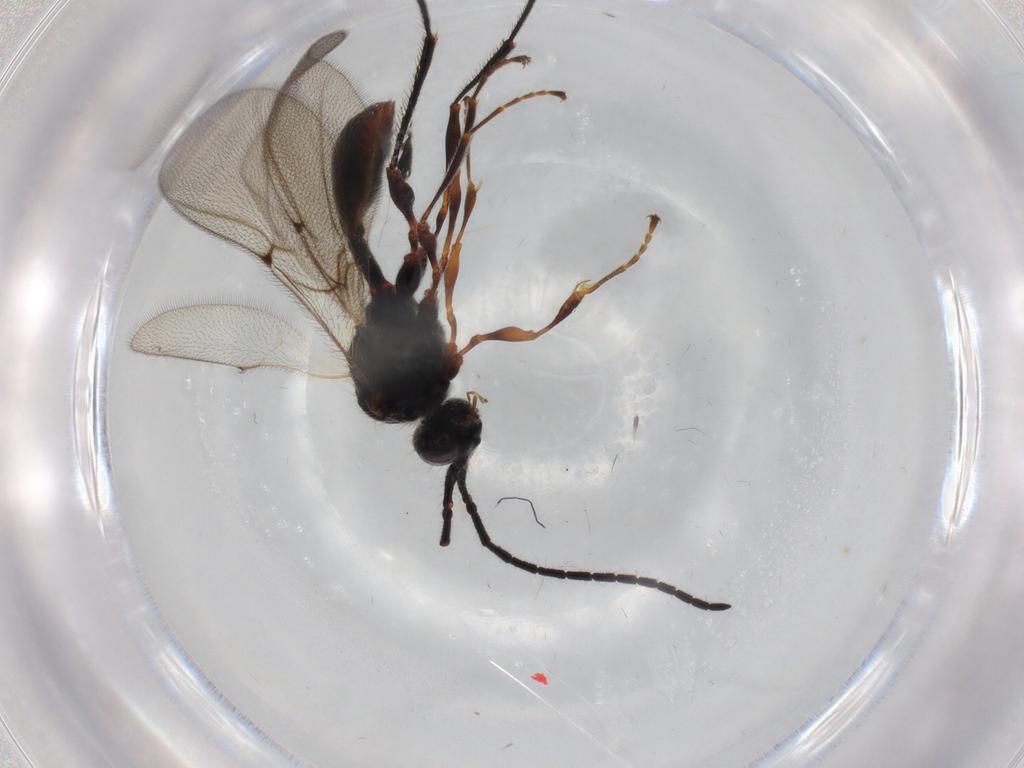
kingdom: Animalia
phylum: Arthropoda
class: Insecta
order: Hymenoptera
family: Diapriidae
